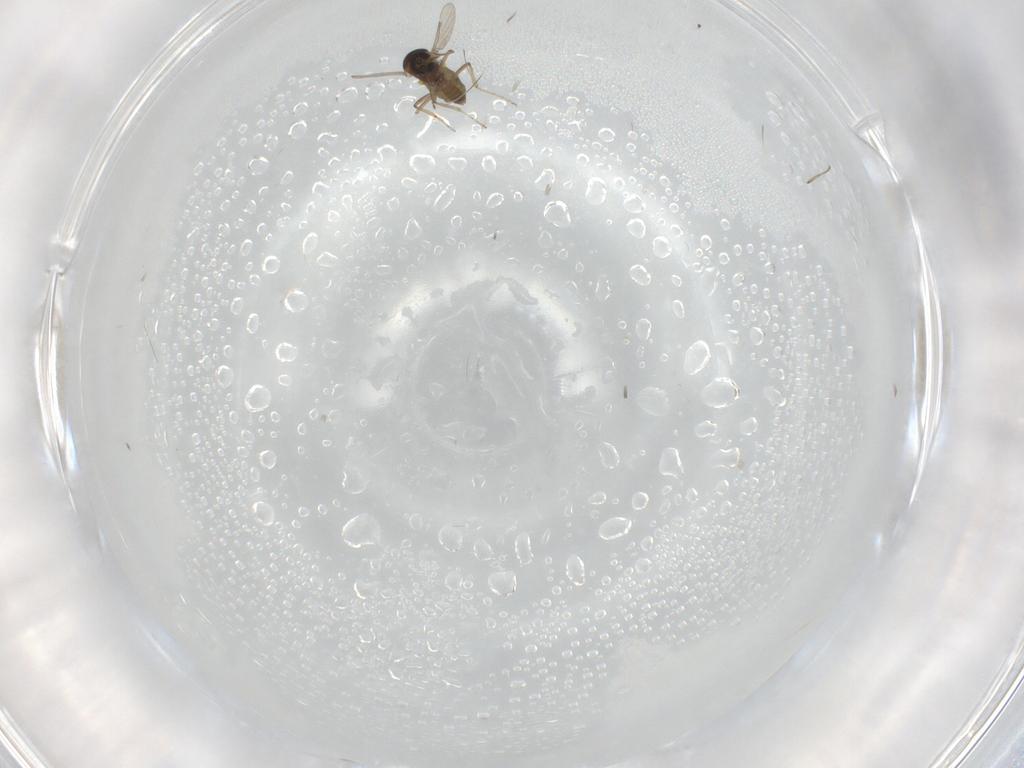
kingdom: Animalia
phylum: Arthropoda
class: Insecta
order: Diptera
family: Ceratopogonidae
